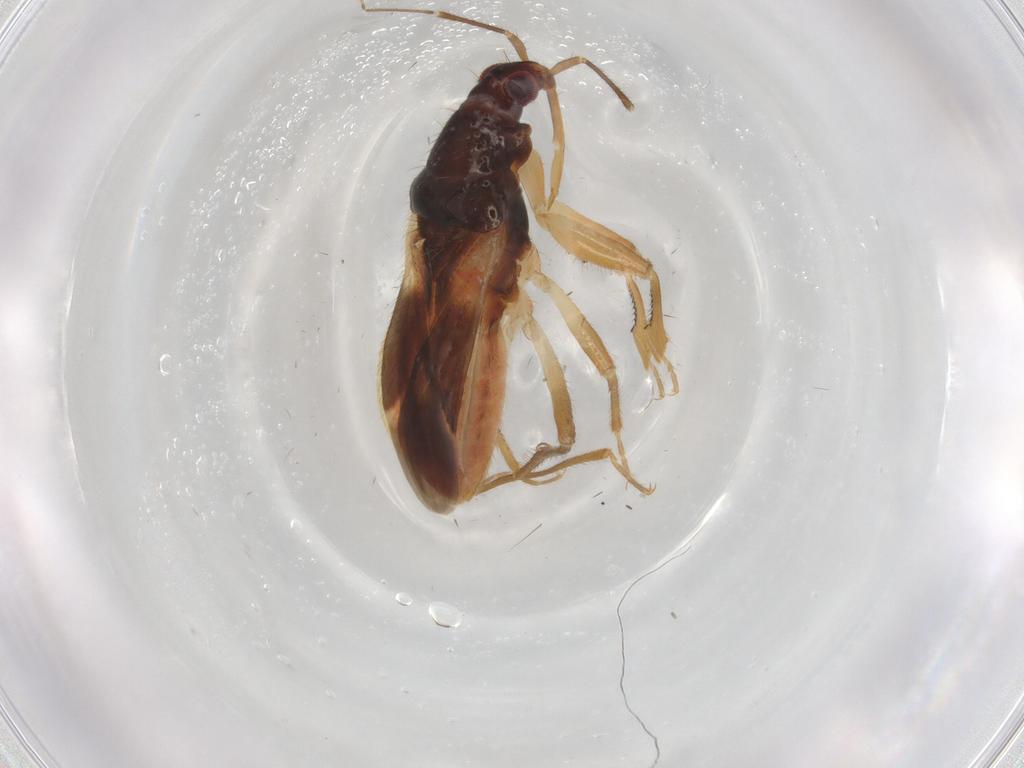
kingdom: Animalia
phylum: Arthropoda
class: Insecta
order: Hemiptera
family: Nabidae
